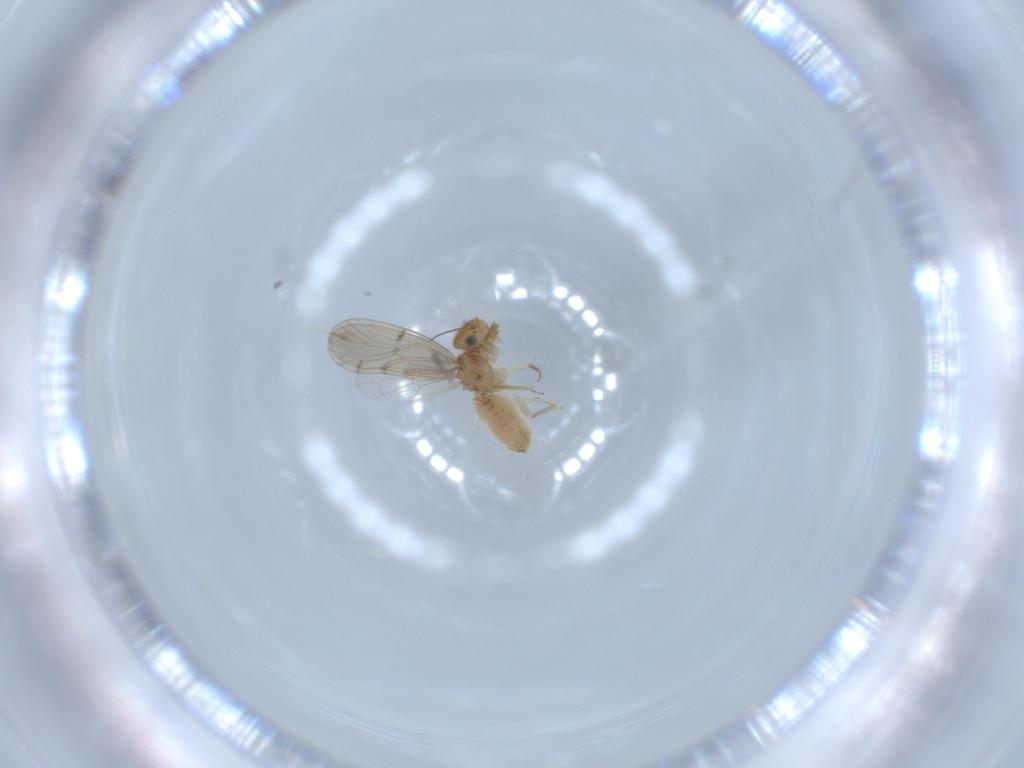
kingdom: Animalia
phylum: Arthropoda
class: Insecta
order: Psocodea
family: Ectopsocidae
